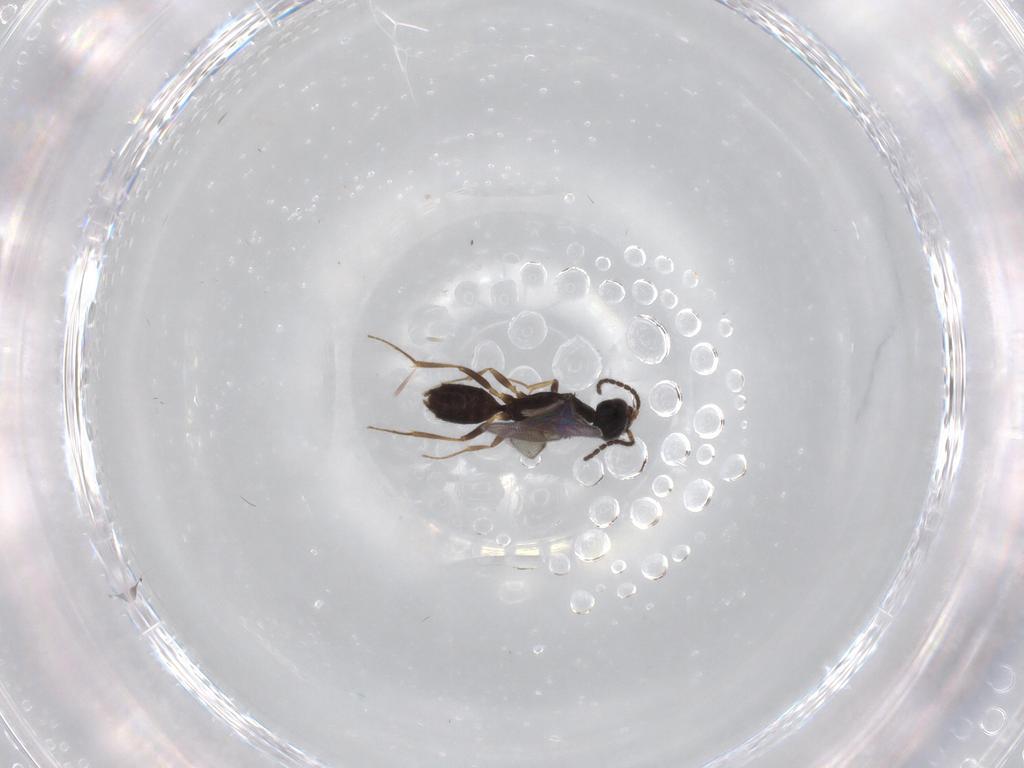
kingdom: Animalia
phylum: Arthropoda
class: Insecta
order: Hymenoptera
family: Bethylidae
